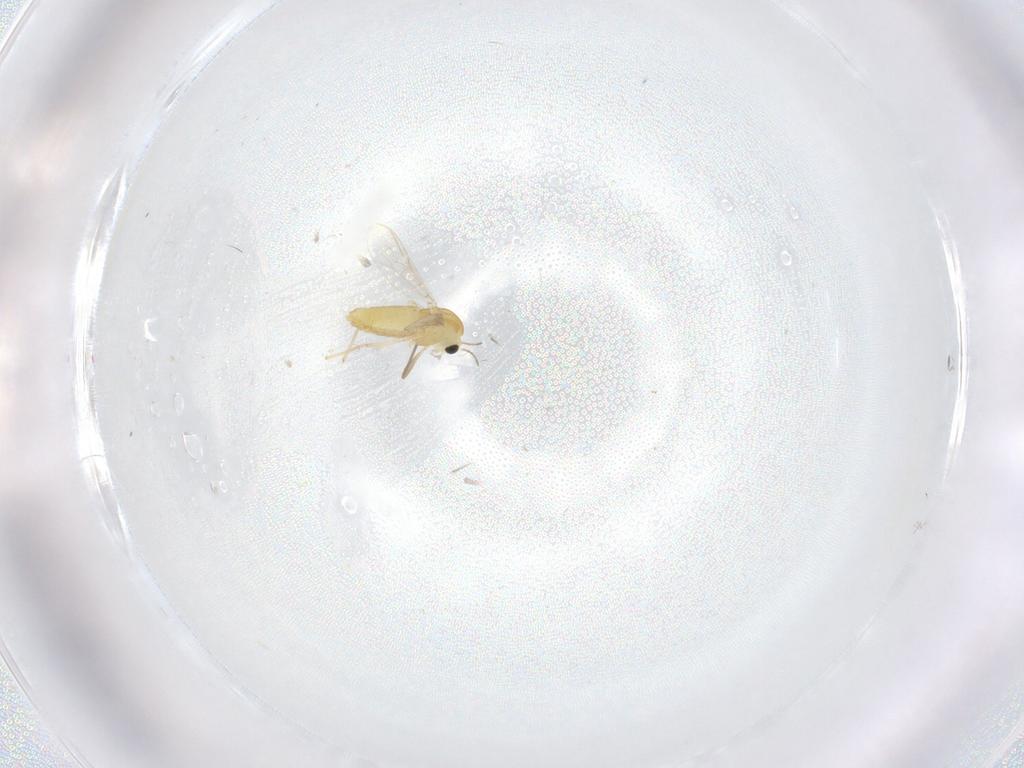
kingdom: Animalia
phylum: Arthropoda
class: Insecta
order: Diptera
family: Chironomidae
